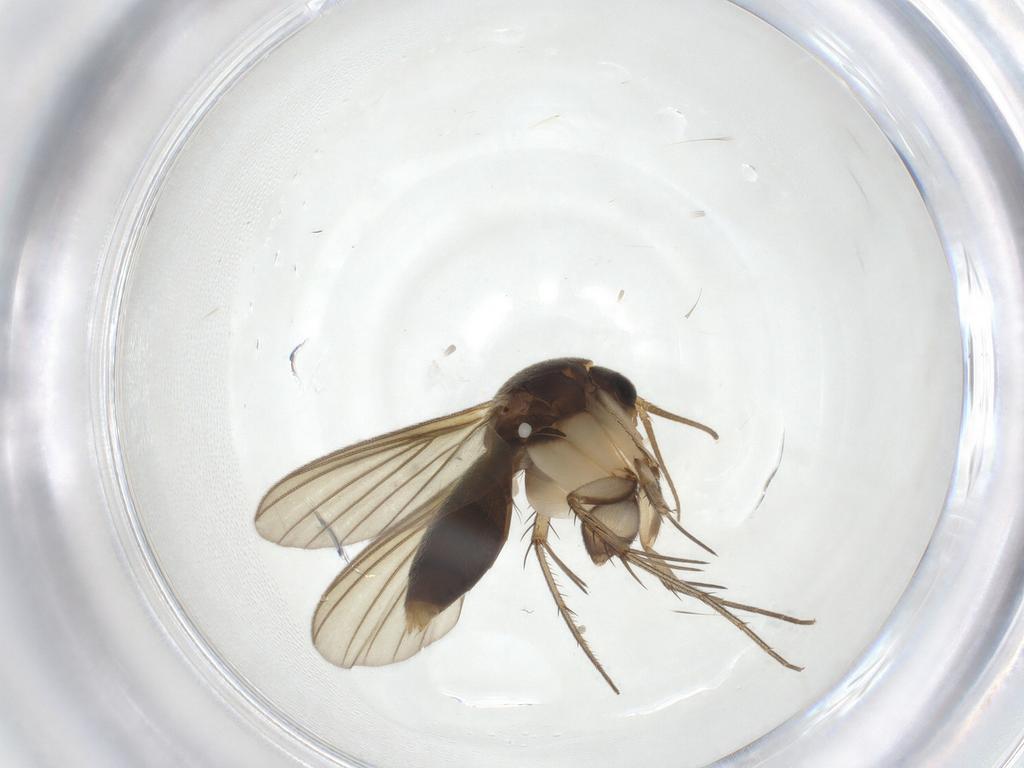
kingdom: Animalia
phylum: Arthropoda
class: Insecta
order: Diptera
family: Mycetophilidae
